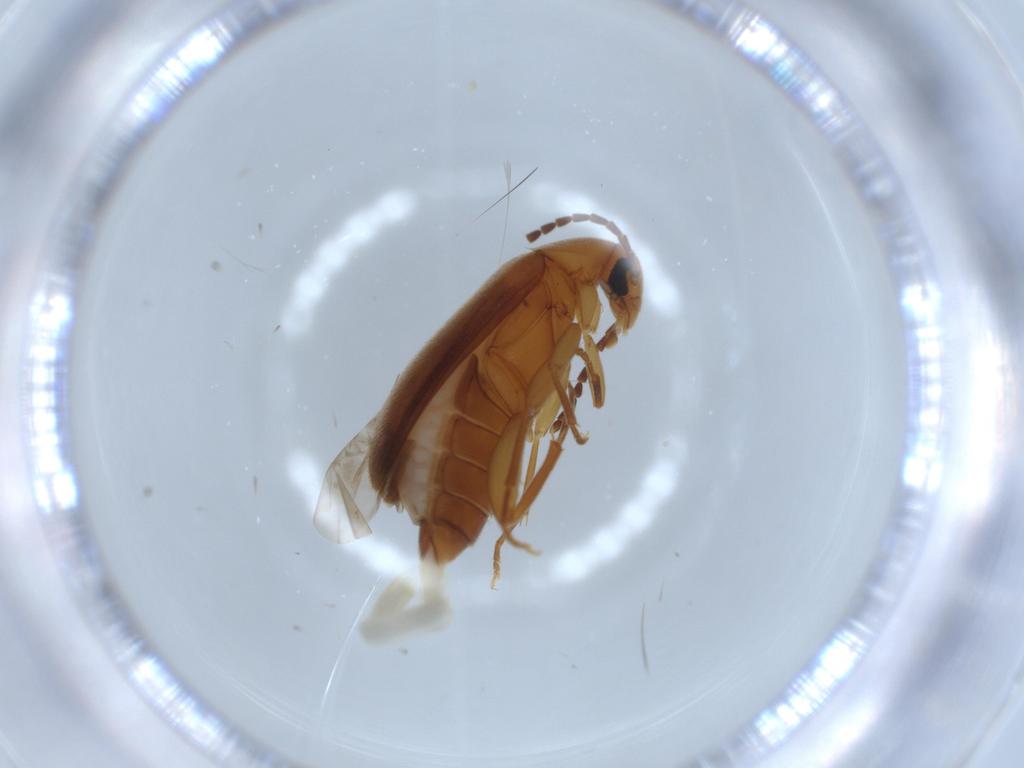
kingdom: Animalia
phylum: Arthropoda
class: Insecta
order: Coleoptera
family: Scraptiidae
